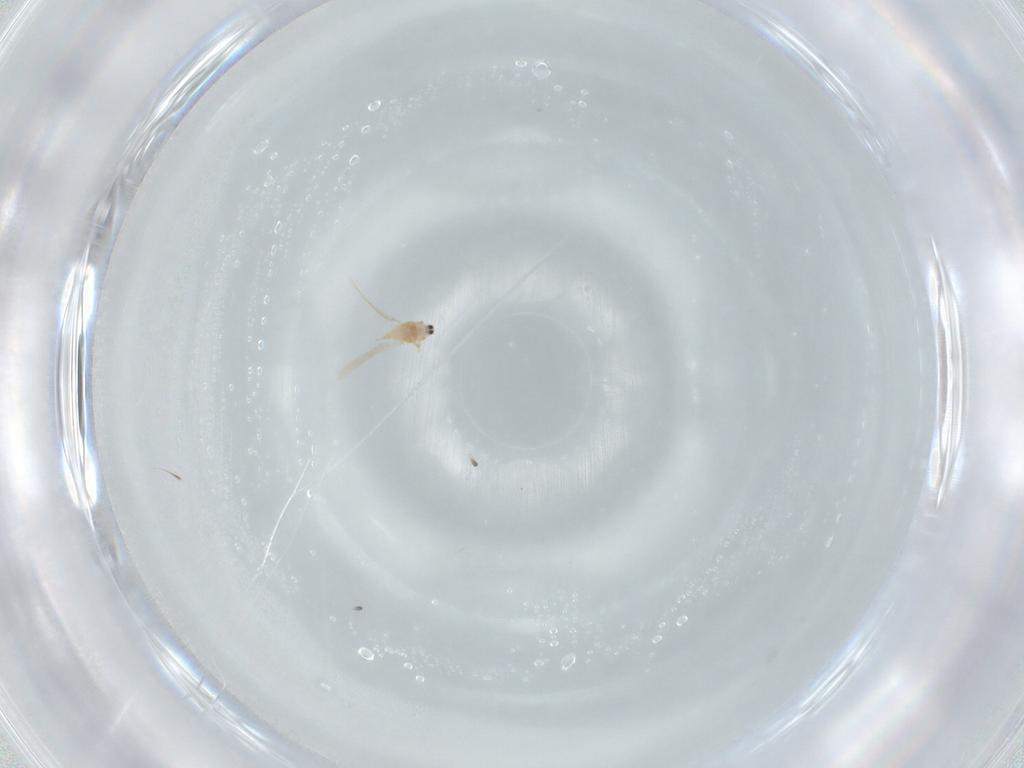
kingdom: Animalia
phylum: Arthropoda
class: Insecta
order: Hemiptera
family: Diaspididae
